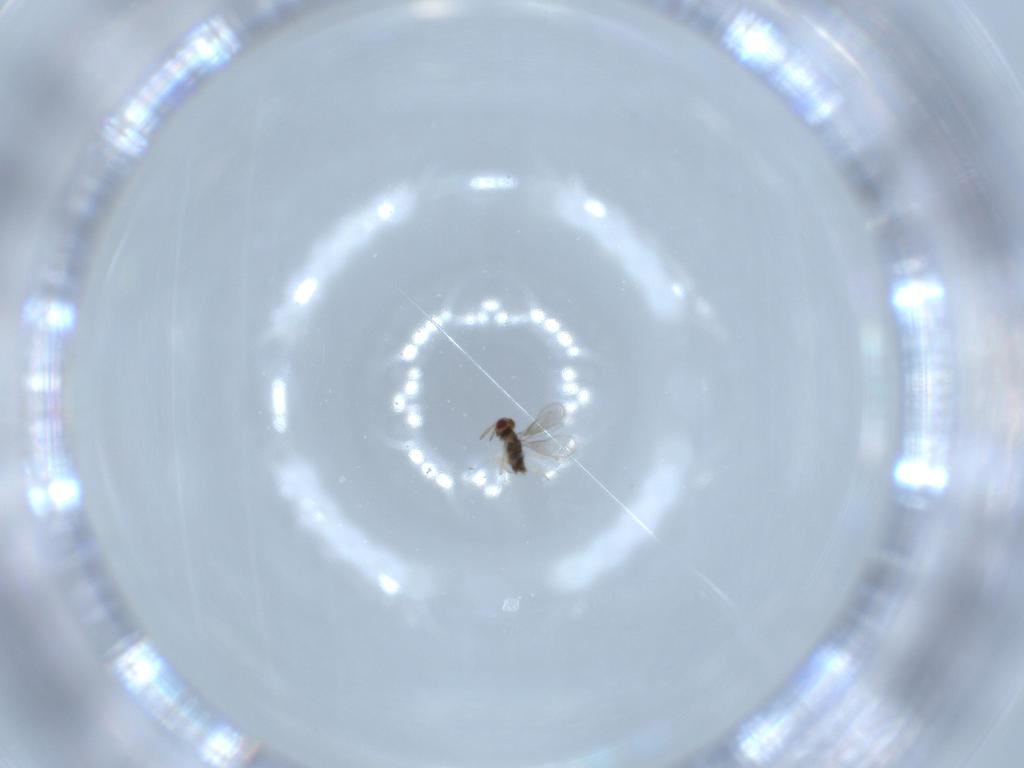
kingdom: Animalia
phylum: Arthropoda
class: Insecta
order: Hymenoptera
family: Aphelinidae
